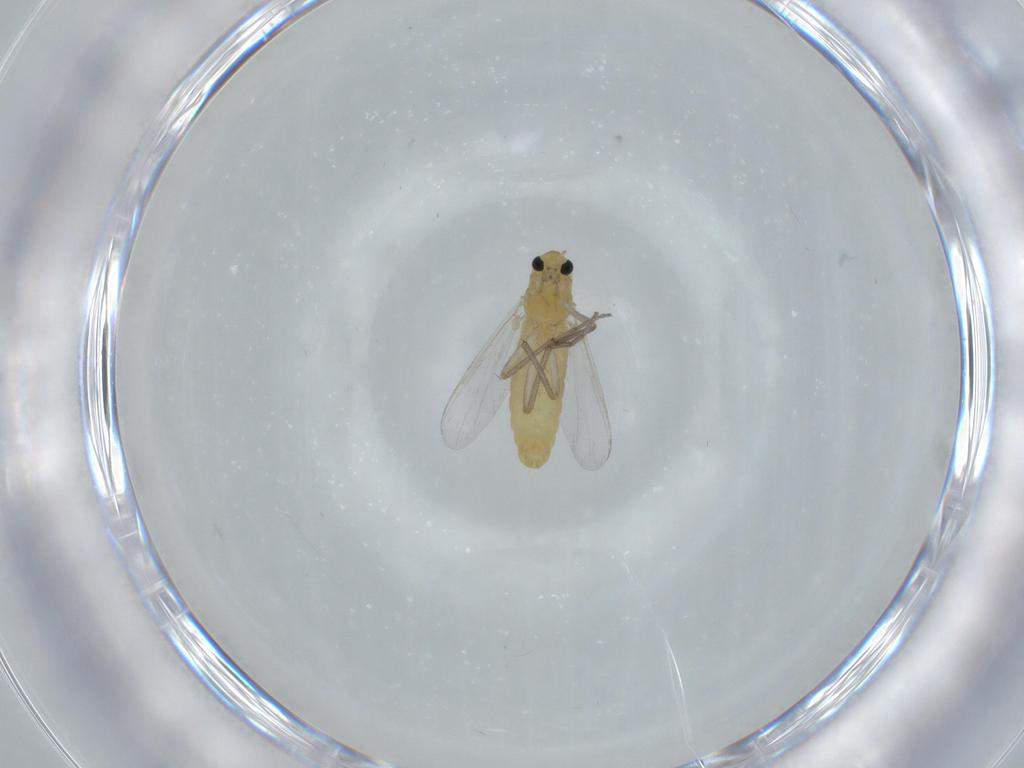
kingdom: Animalia
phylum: Arthropoda
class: Insecta
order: Diptera
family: Chironomidae
